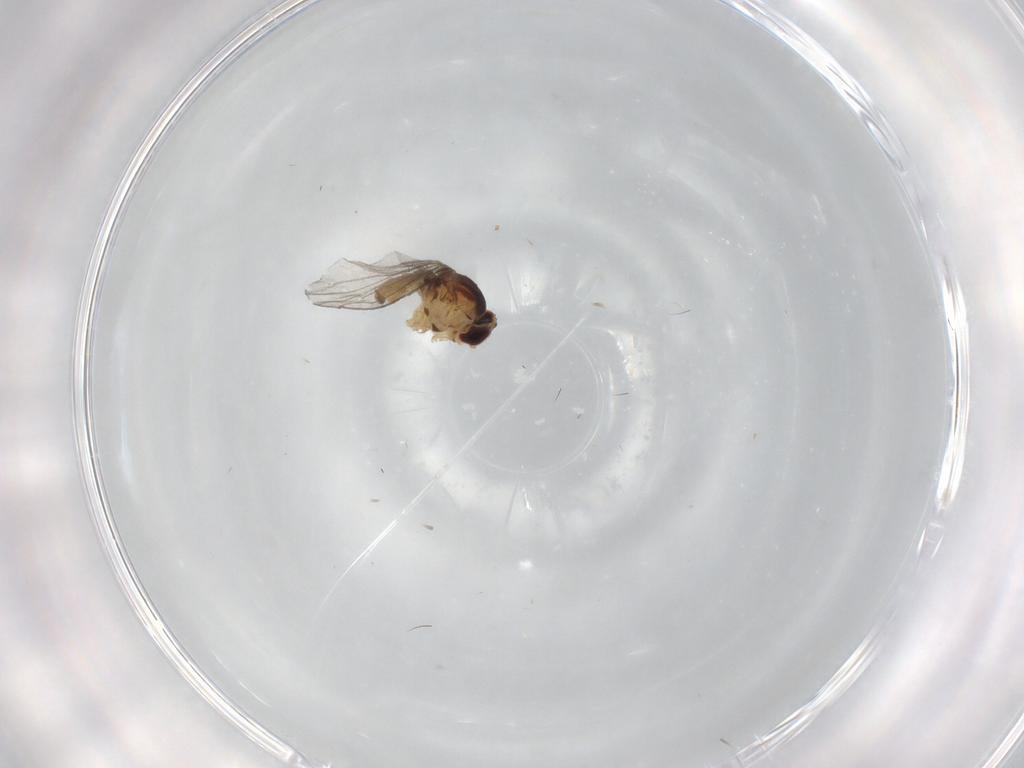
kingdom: Animalia
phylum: Arthropoda
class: Insecta
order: Diptera
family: Agromyzidae
